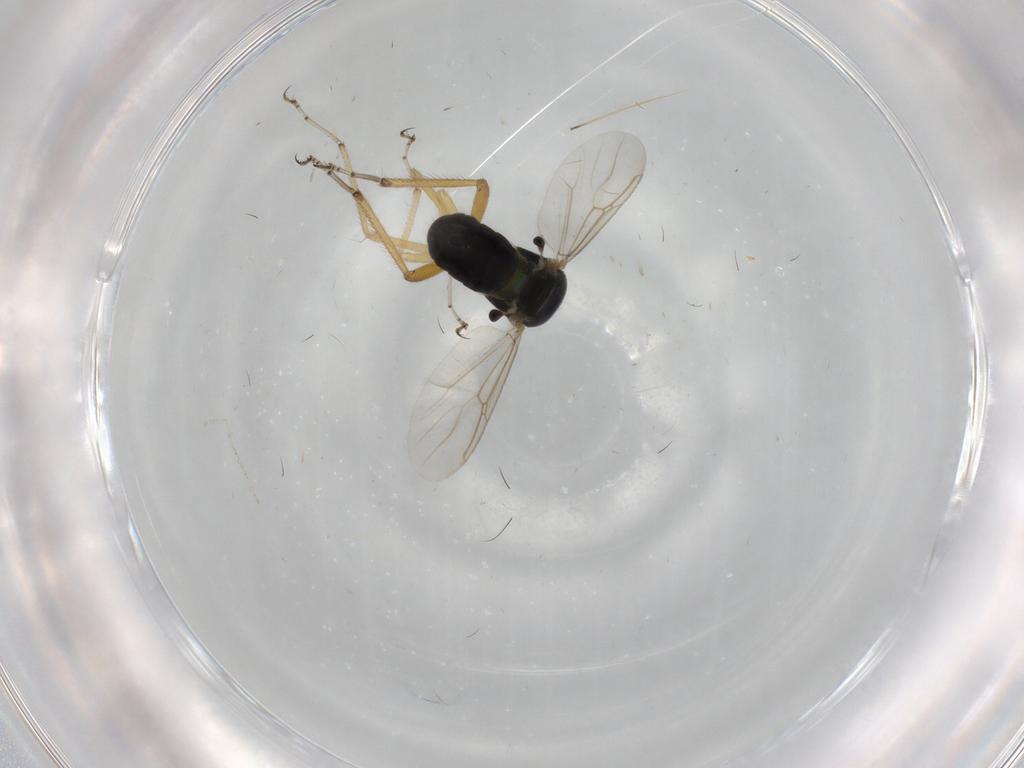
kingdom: Animalia
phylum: Arthropoda
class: Insecta
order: Diptera
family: Ceratopogonidae
